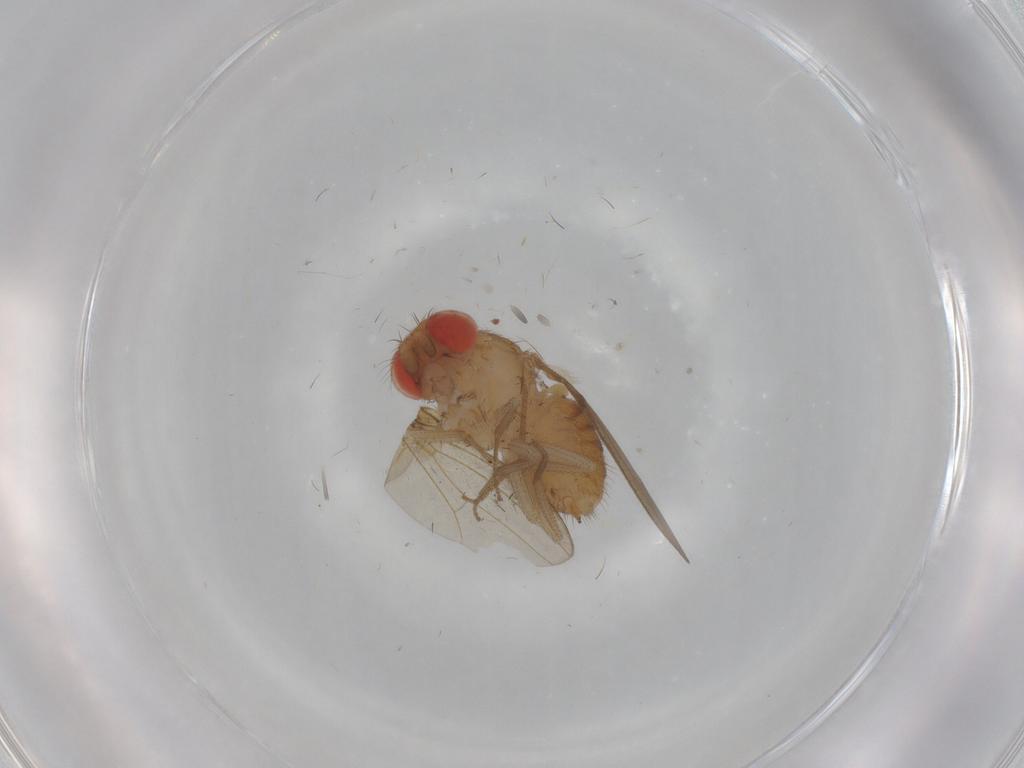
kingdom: Animalia
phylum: Arthropoda
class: Insecta
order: Diptera
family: Drosophilidae
